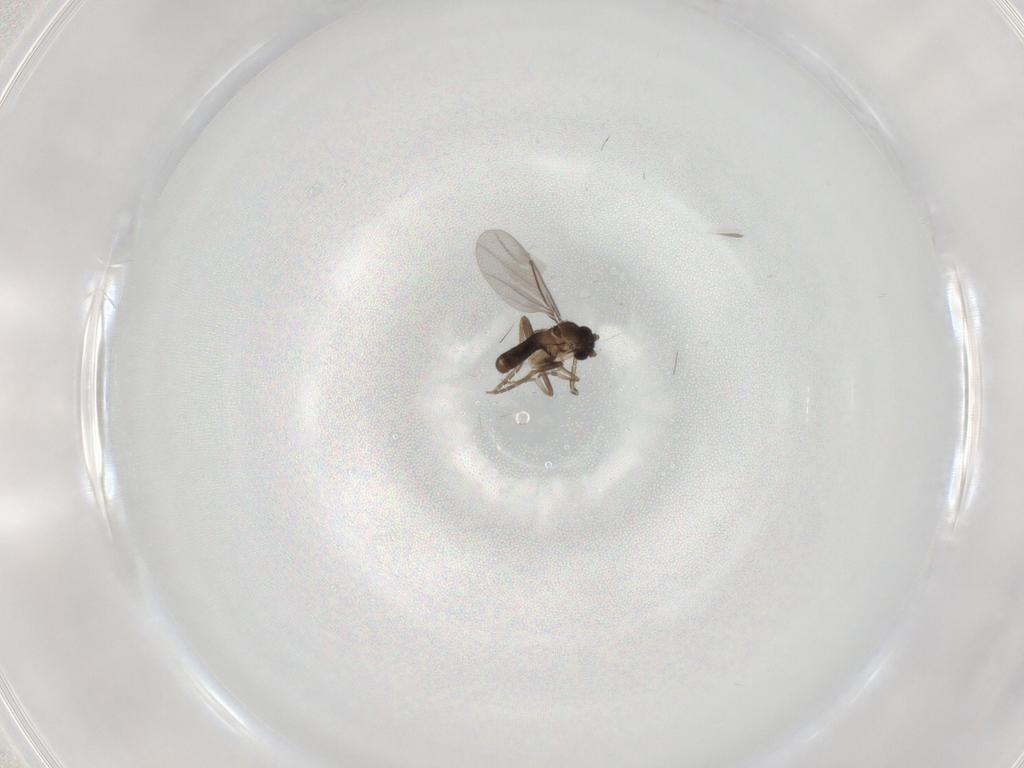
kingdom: Animalia
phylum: Arthropoda
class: Insecta
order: Diptera
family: Phoridae
